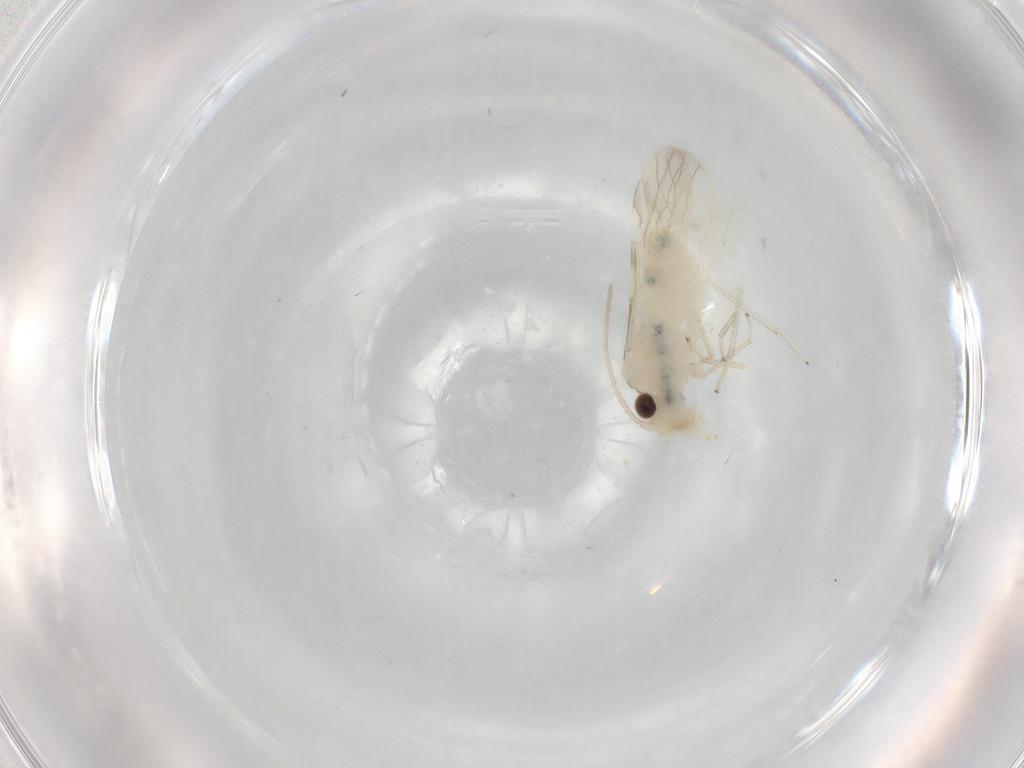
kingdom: Animalia
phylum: Arthropoda
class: Insecta
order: Psocodea
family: Caeciliusidae
